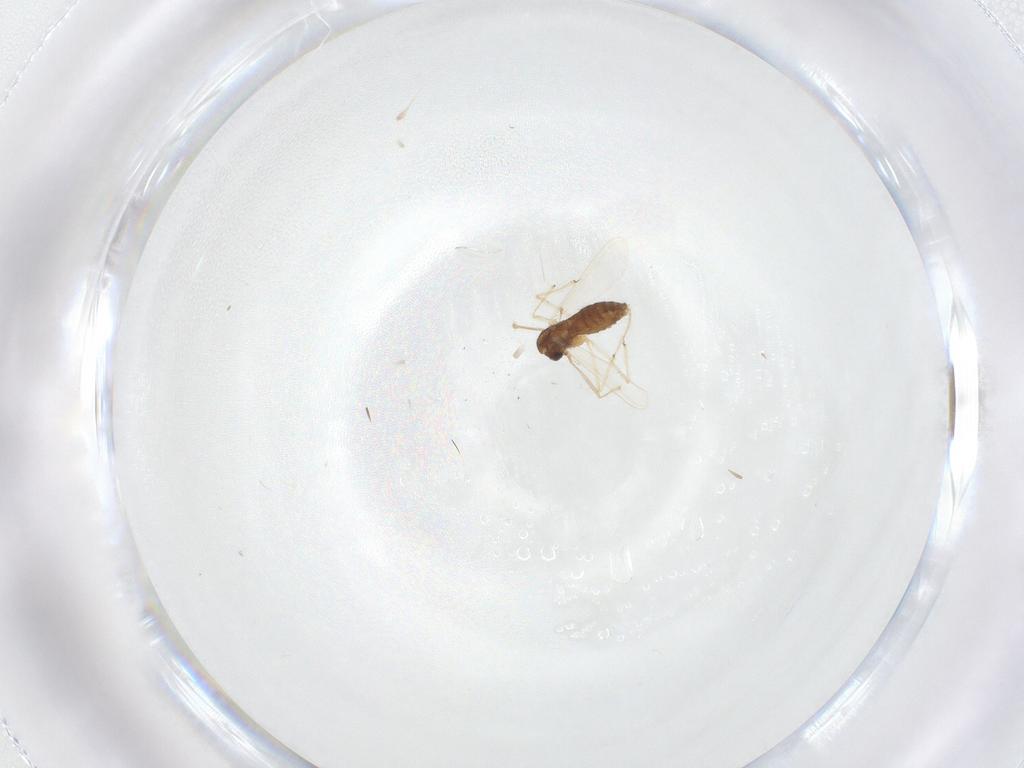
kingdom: Animalia
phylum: Arthropoda
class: Insecta
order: Diptera
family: Chironomidae
